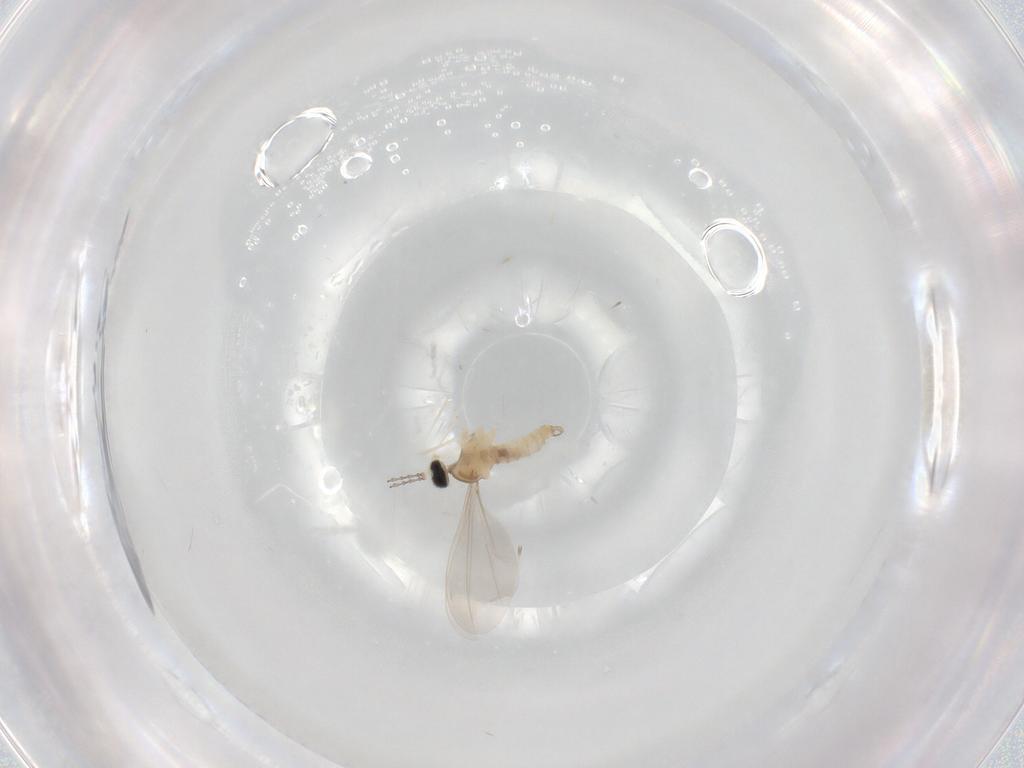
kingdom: Animalia
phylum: Arthropoda
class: Insecta
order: Diptera
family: Cecidomyiidae
